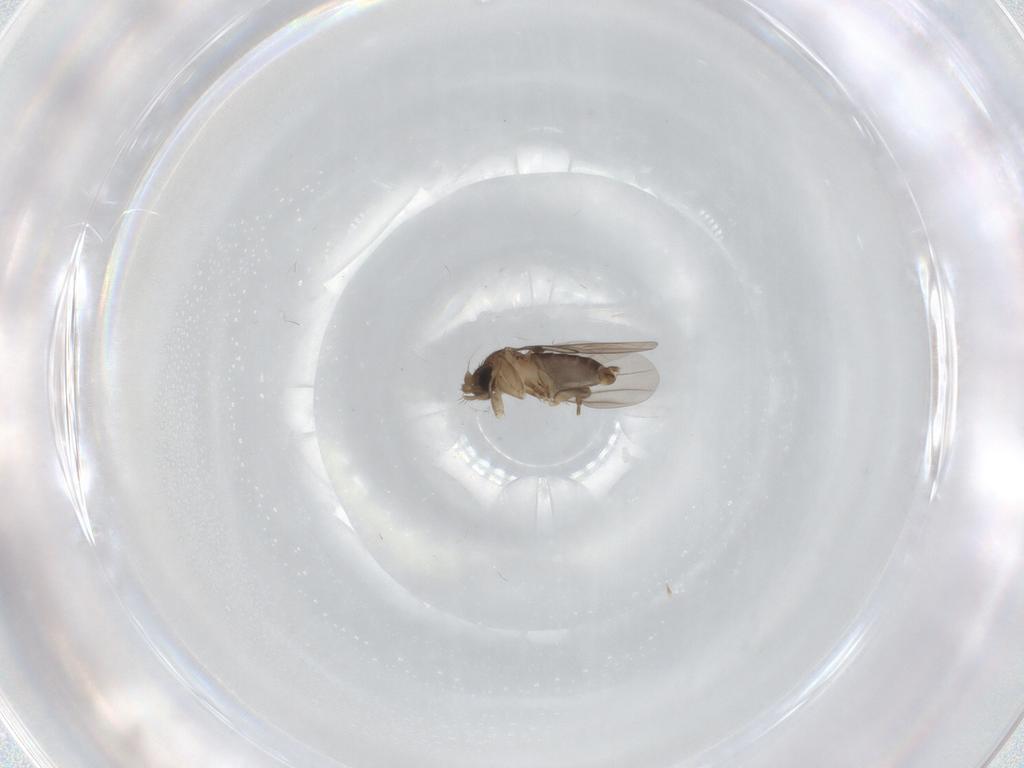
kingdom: Animalia
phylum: Arthropoda
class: Insecta
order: Diptera
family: Phoridae
